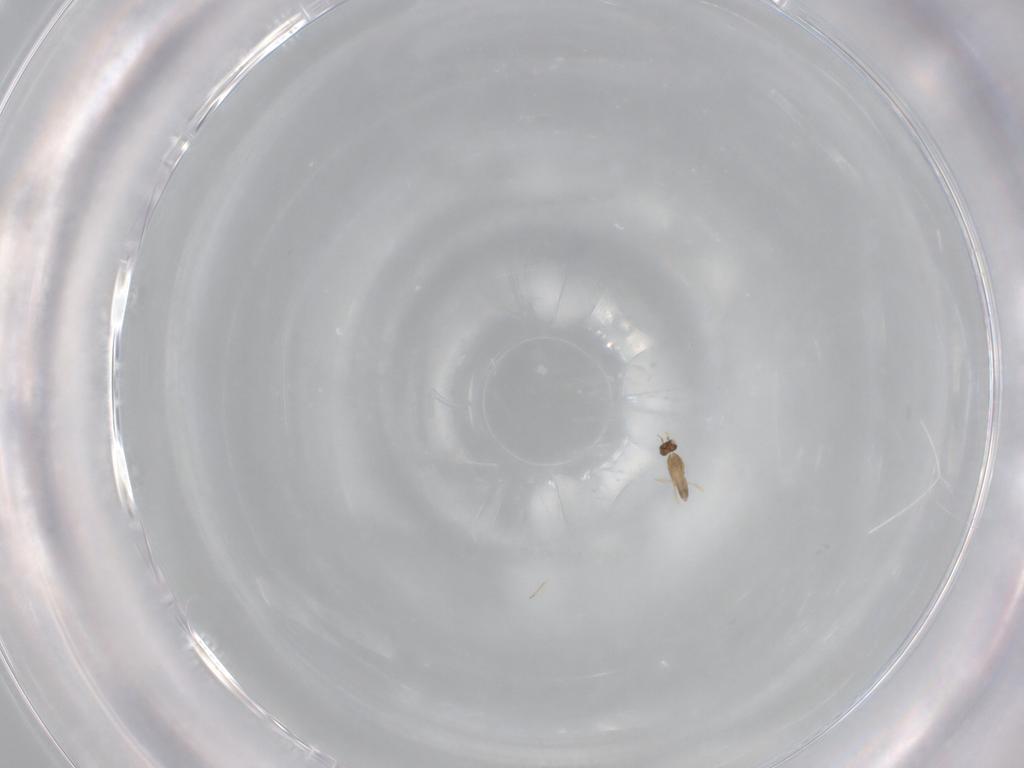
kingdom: Animalia
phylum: Arthropoda
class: Insecta
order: Hymenoptera
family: Mymaridae
